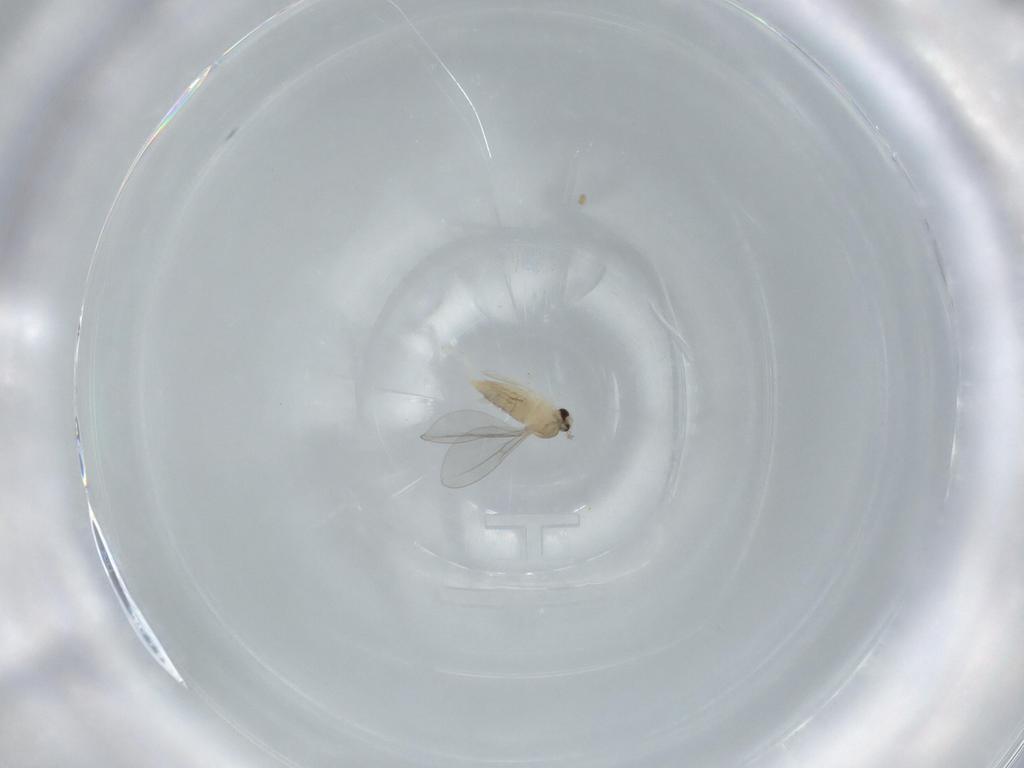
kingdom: Animalia
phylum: Arthropoda
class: Insecta
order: Diptera
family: Cecidomyiidae
